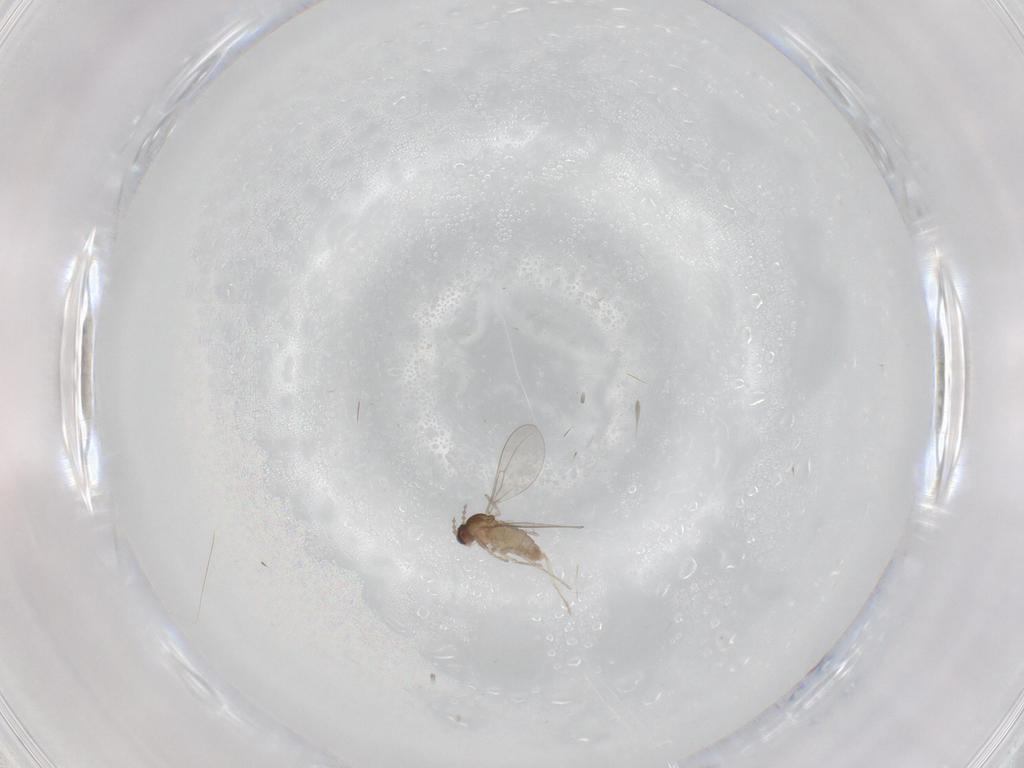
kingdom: Animalia
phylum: Arthropoda
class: Insecta
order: Diptera
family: Cecidomyiidae
